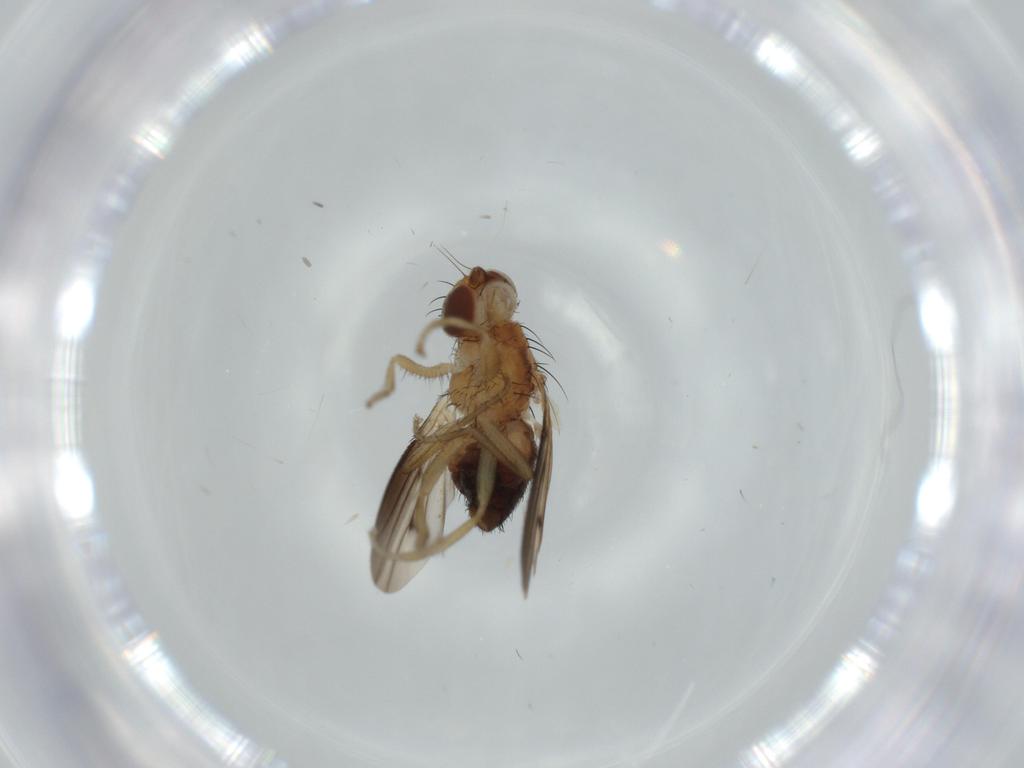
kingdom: Animalia
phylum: Arthropoda
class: Insecta
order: Diptera
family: Heleomyzidae
